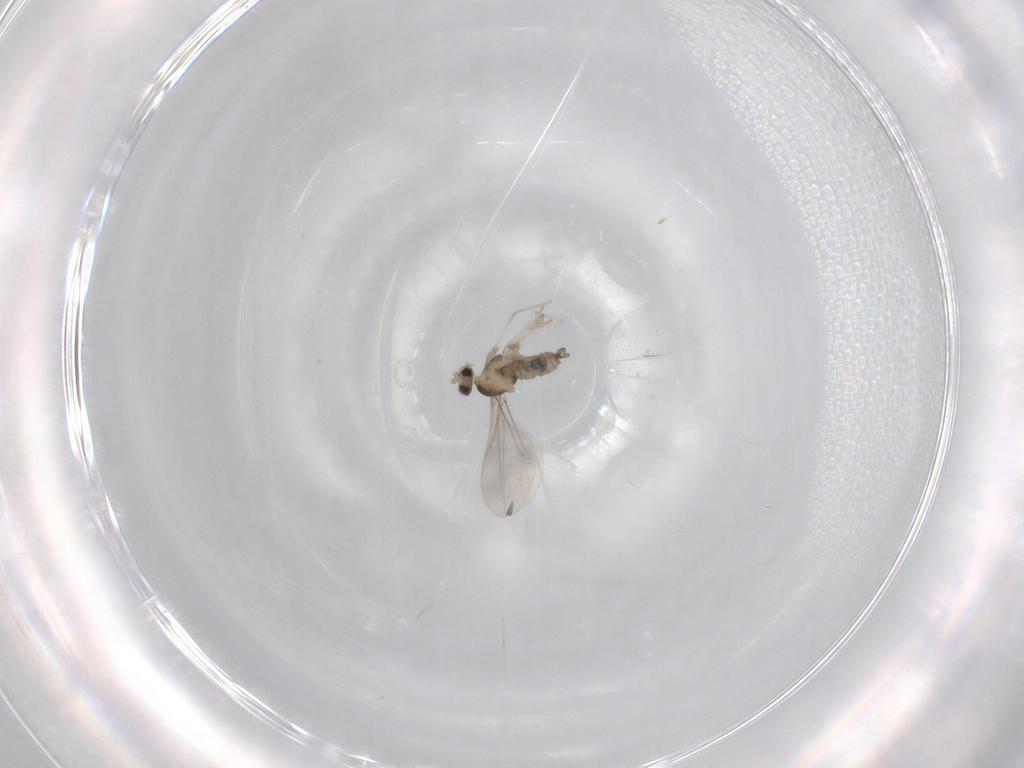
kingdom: Animalia
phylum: Arthropoda
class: Insecta
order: Diptera
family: Cecidomyiidae
